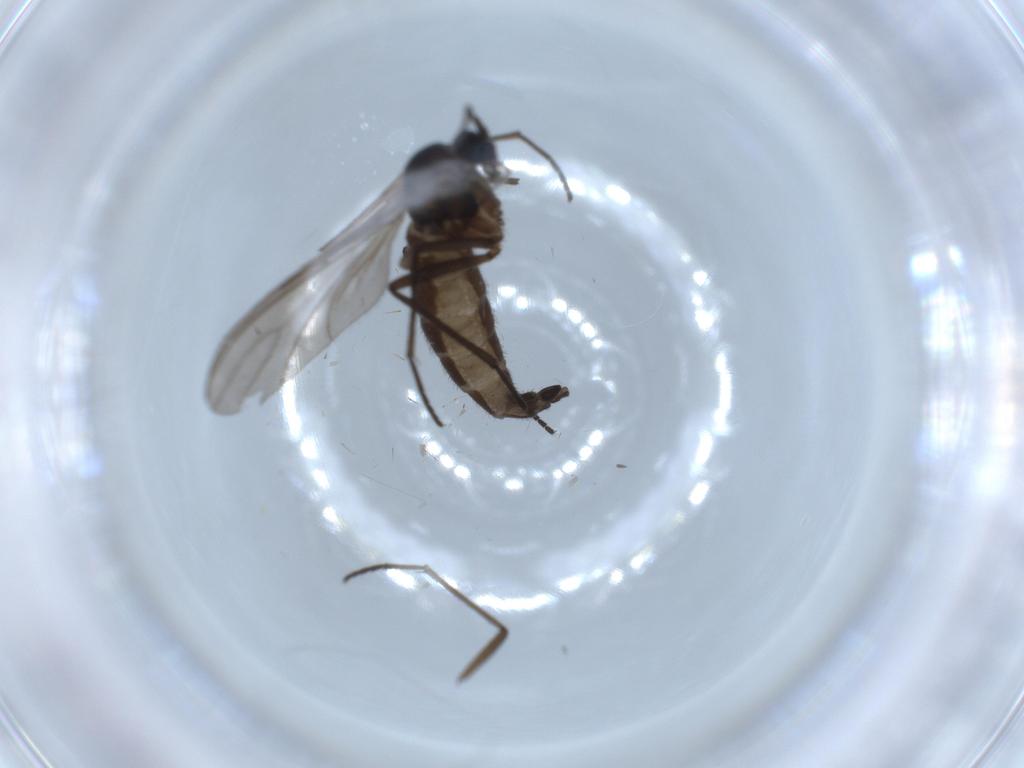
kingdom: Animalia
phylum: Arthropoda
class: Insecta
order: Diptera
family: Sciaridae
